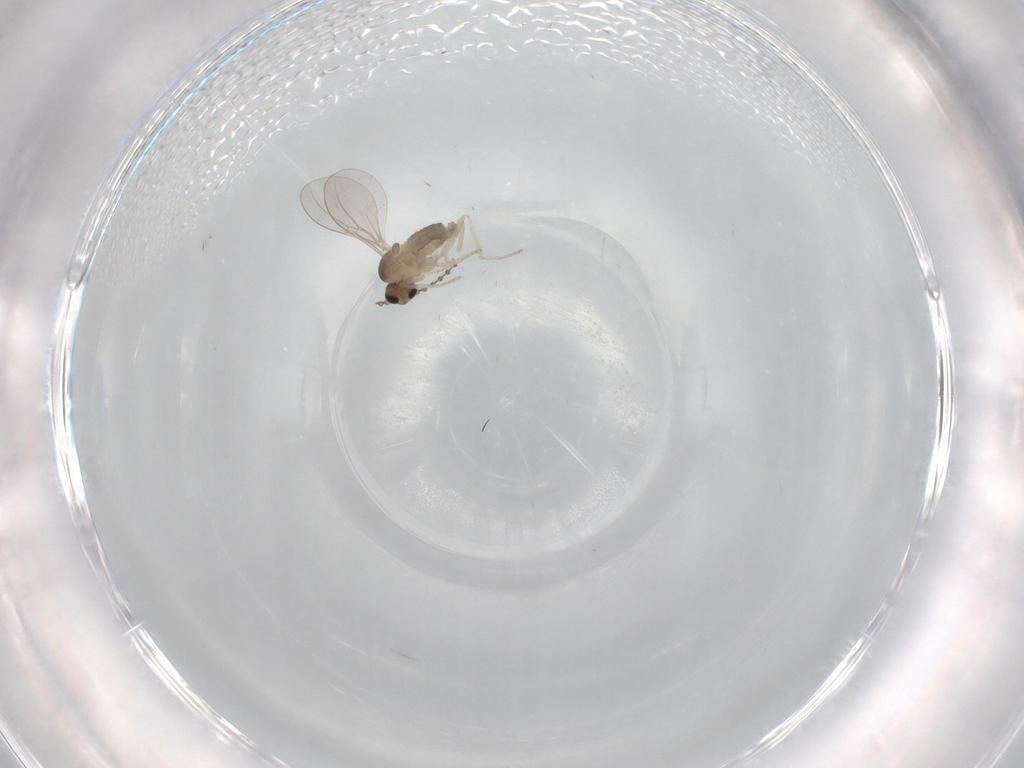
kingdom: Animalia
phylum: Arthropoda
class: Insecta
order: Diptera
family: Cecidomyiidae
